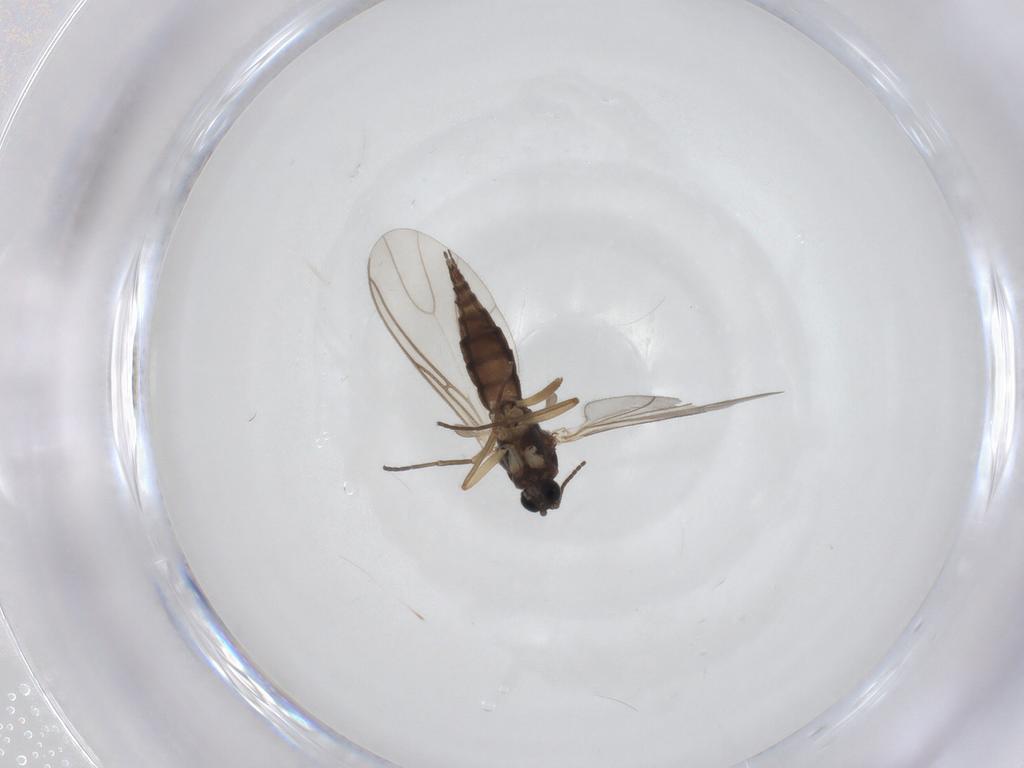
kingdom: Animalia
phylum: Arthropoda
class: Insecta
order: Diptera
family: Sciaridae
